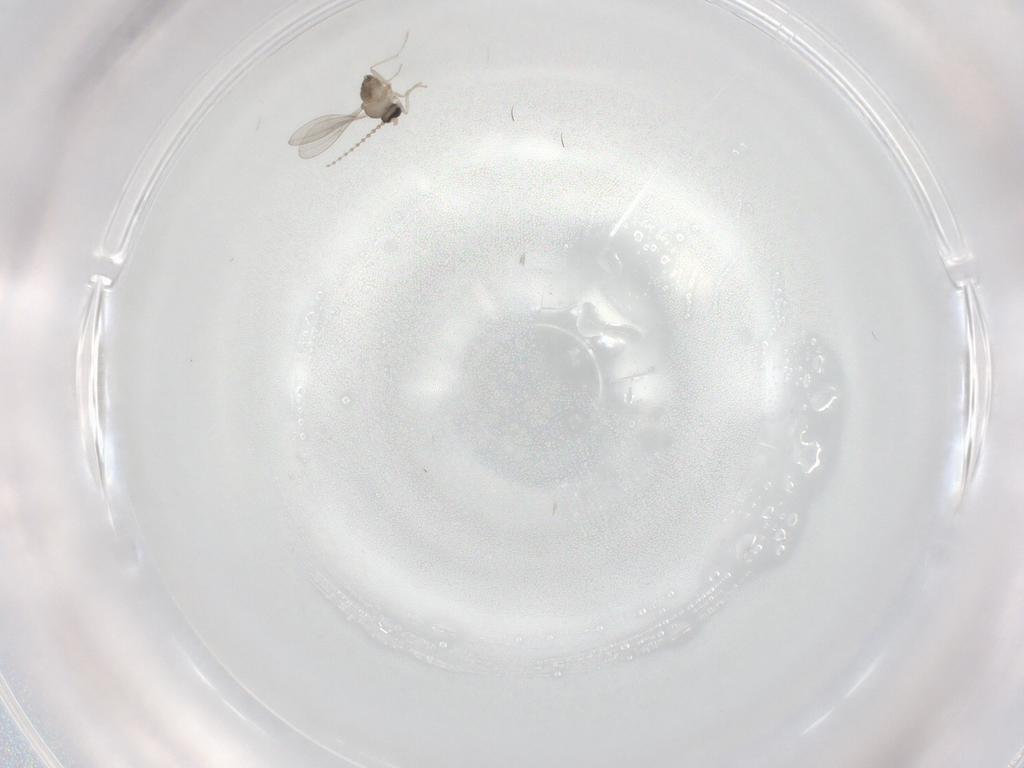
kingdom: Animalia
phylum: Arthropoda
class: Insecta
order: Diptera
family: Cecidomyiidae
